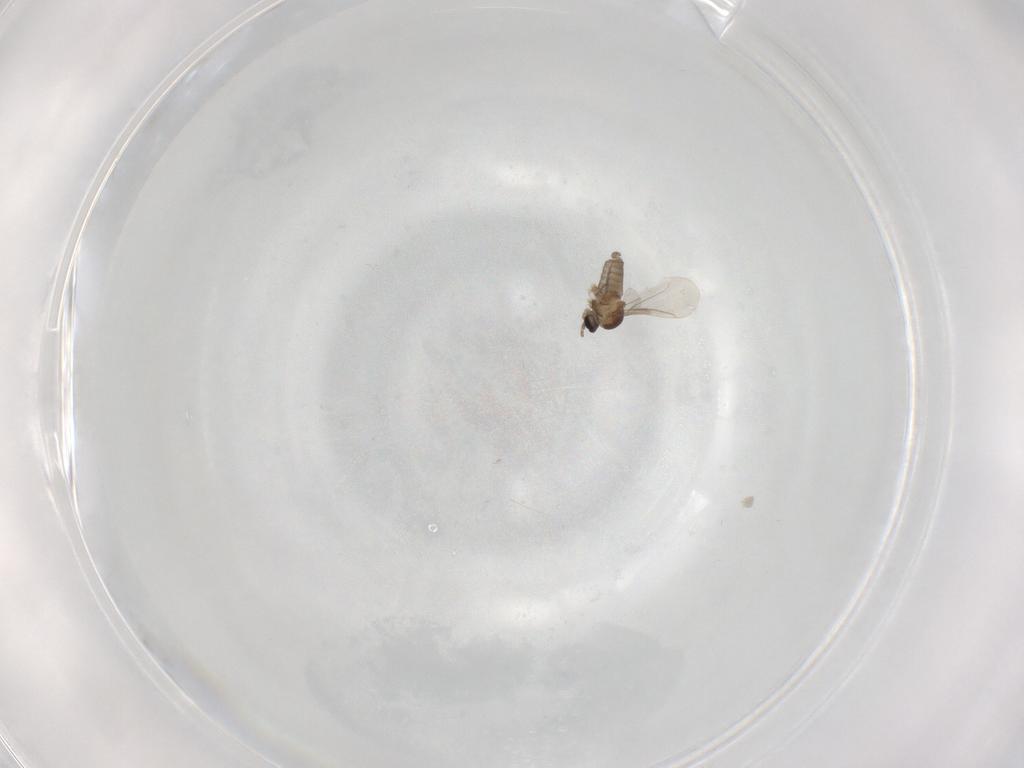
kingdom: Animalia
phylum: Arthropoda
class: Insecta
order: Diptera
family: Cecidomyiidae
